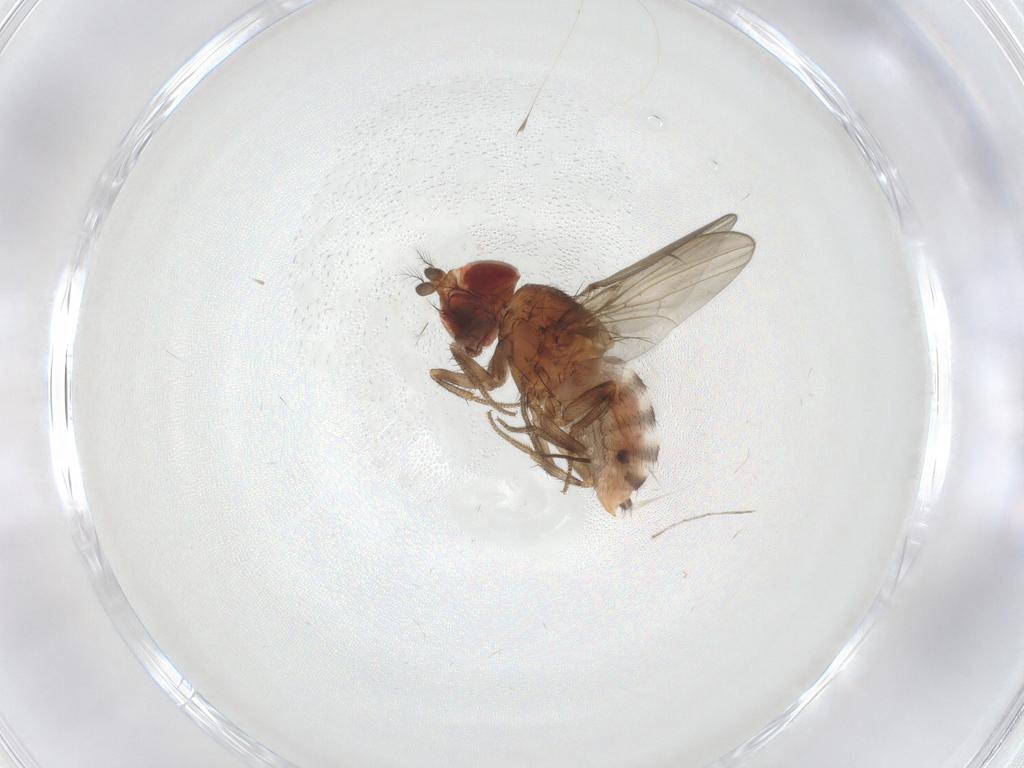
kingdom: Animalia
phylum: Arthropoda
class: Insecta
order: Diptera
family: Drosophilidae
